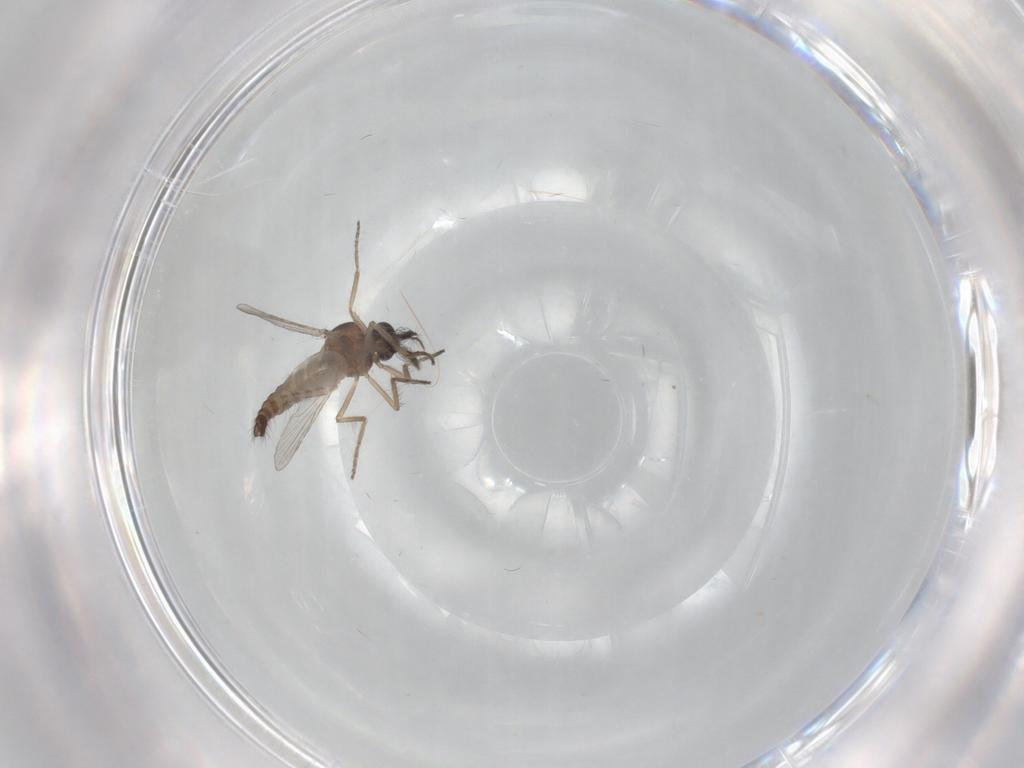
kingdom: Animalia
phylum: Arthropoda
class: Insecta
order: Diptera
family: Ceratopogonidae
